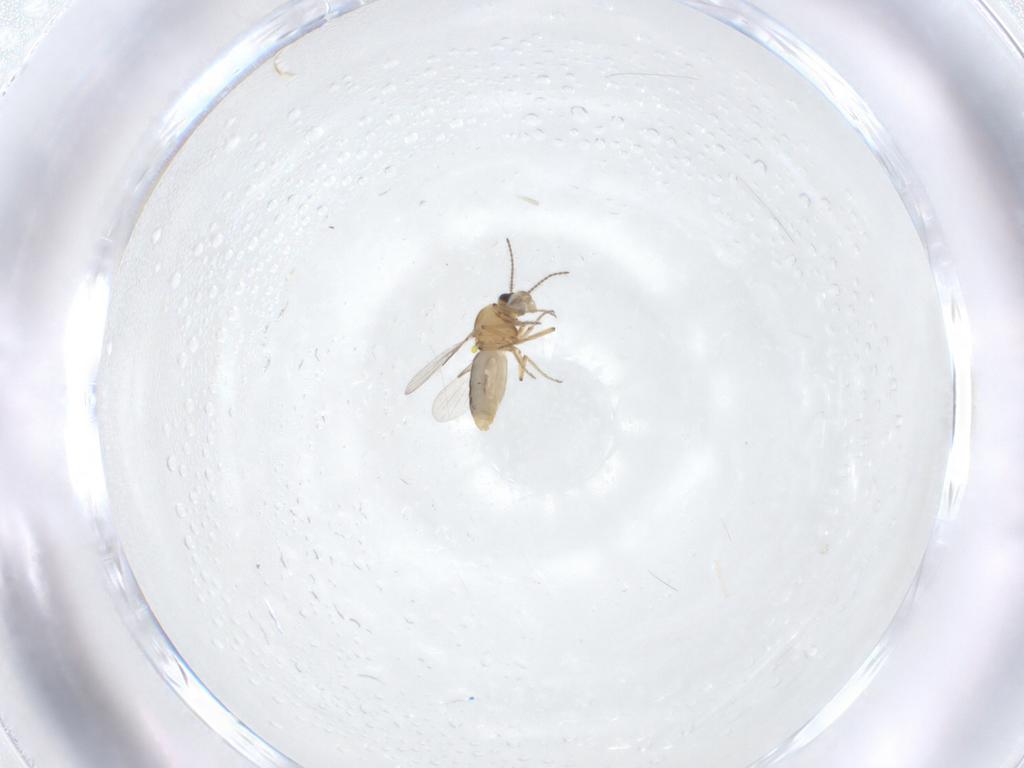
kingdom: Animalia
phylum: Arthropoda
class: Insecta
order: Diptera
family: Ceratopogonidae
